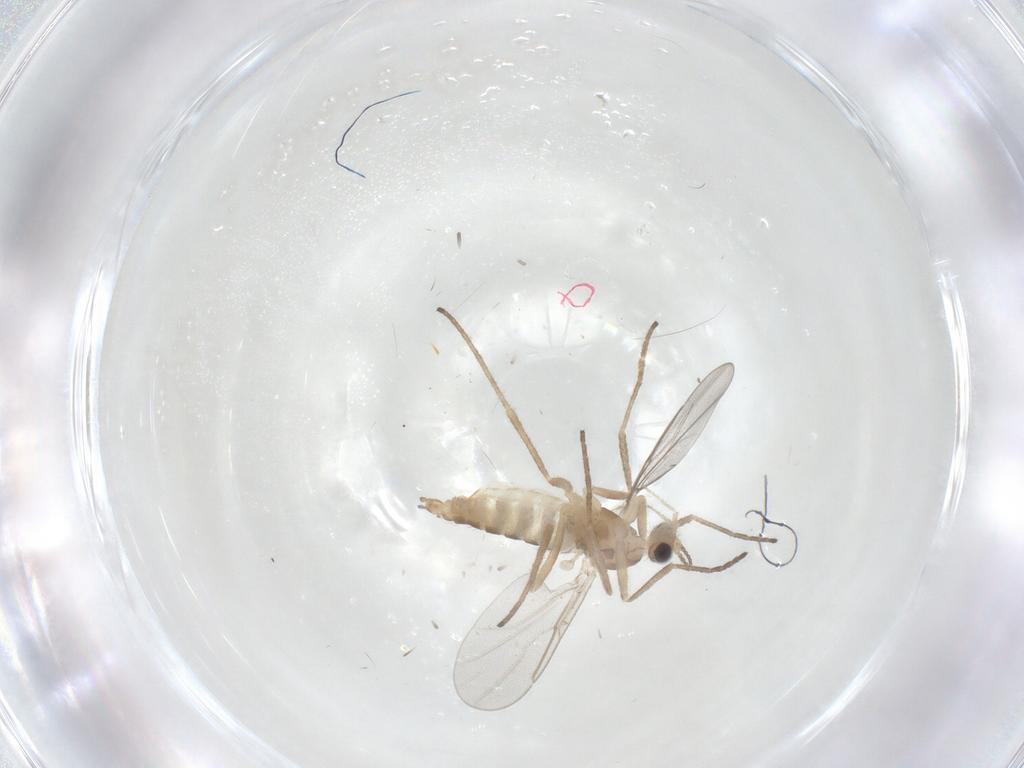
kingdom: Animalia
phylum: Arthropoda
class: Insecta
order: Diptera
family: Cecidomyiidae
